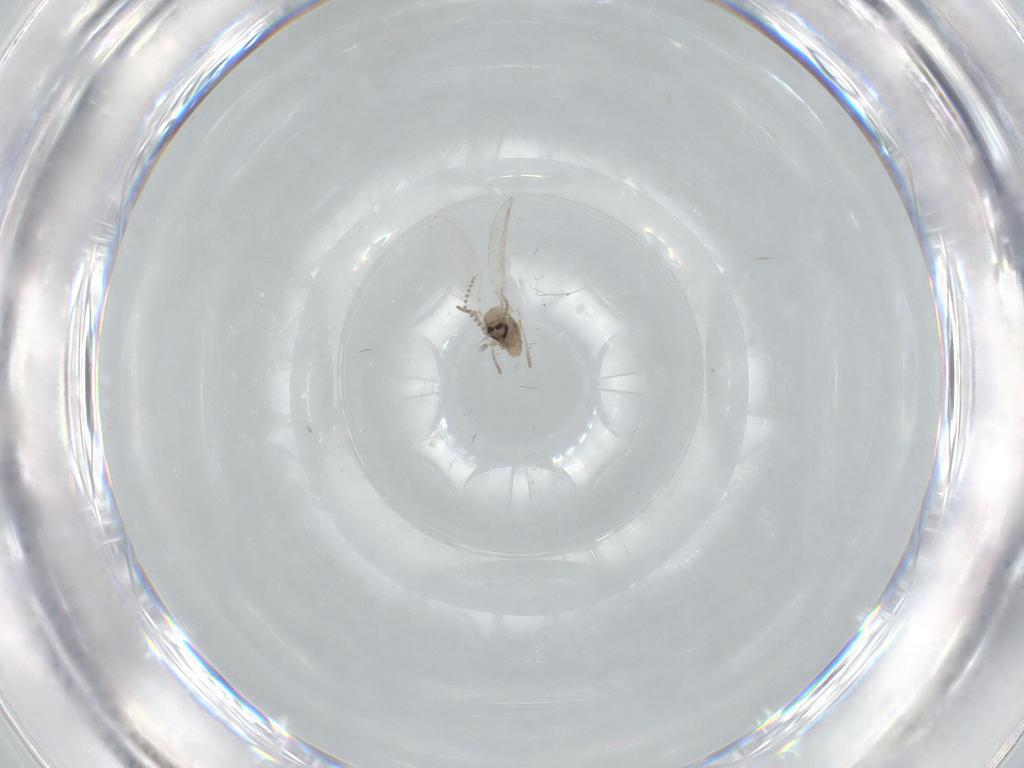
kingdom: Animalia
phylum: Arthropoda
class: Insecta
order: Diptera
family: Psychodidae
